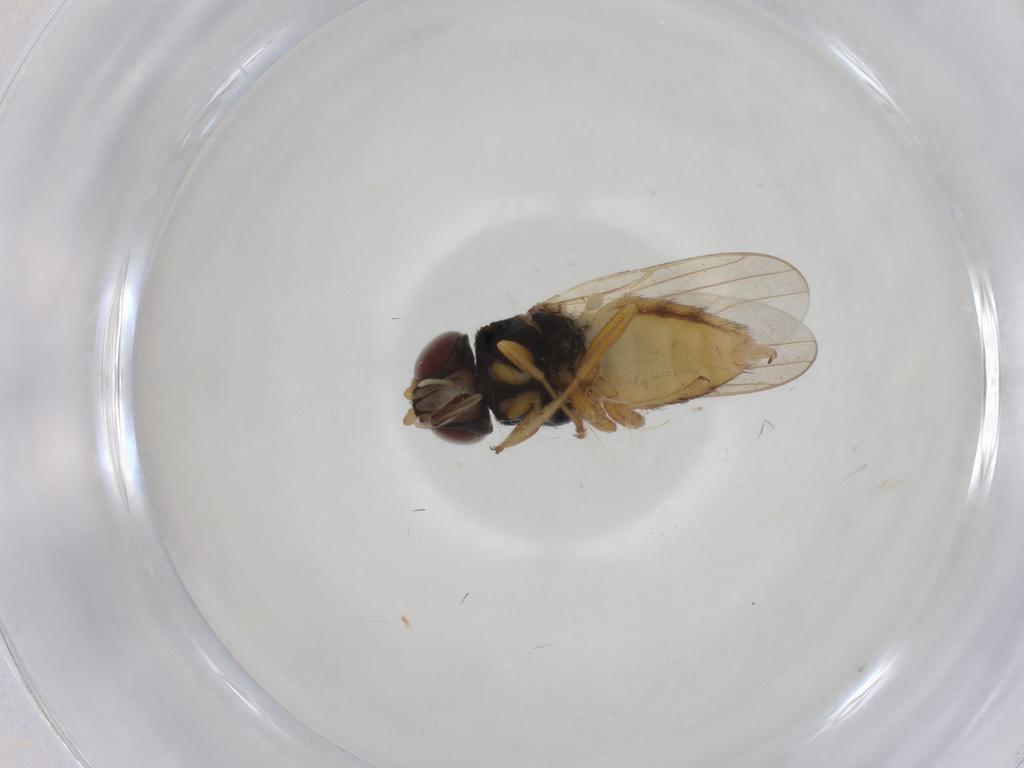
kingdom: Animalia
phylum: Arthropoda
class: Insecta
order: Diptera
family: Chloropidae
